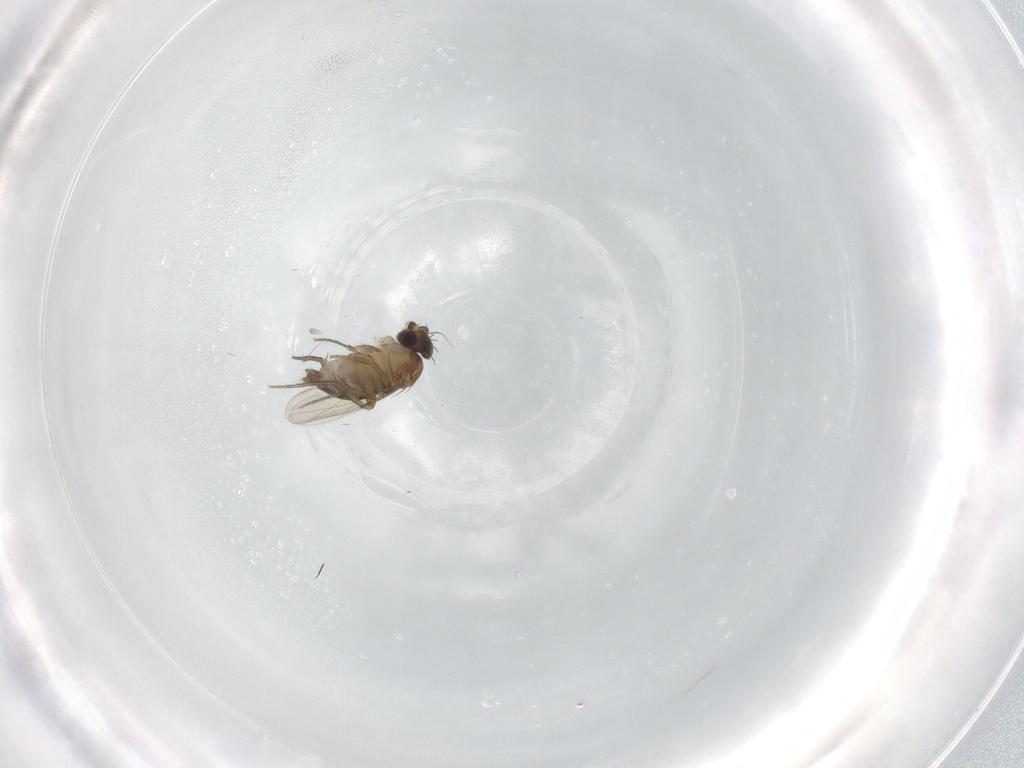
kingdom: Animalia
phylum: Arthropoda
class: Insecta
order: Diptera
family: Phoridae
